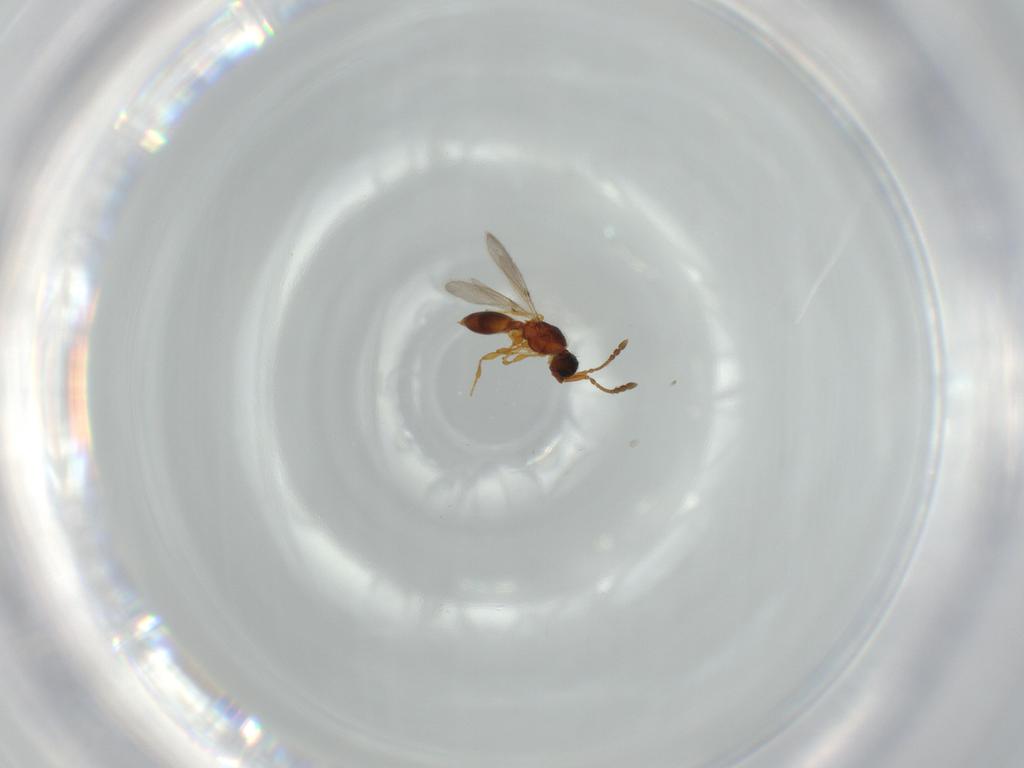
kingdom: Animalia
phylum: Arthropoda
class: Insecta
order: Hymenoptera
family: Diapriidae
